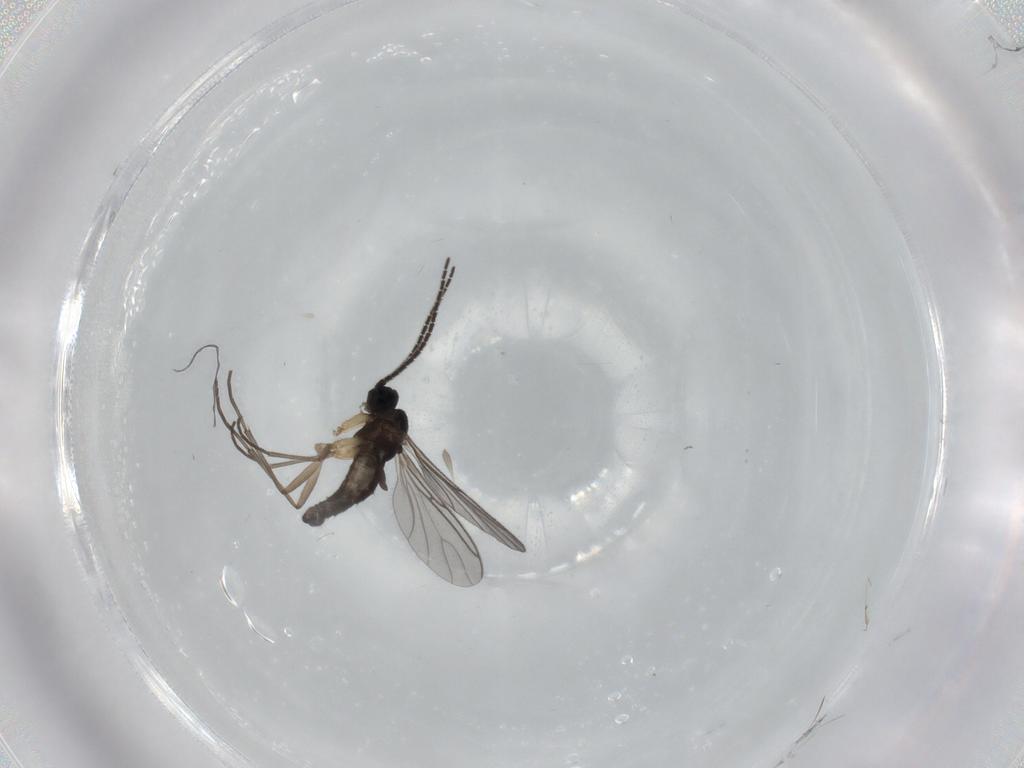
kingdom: Animalia
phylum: Arthropoda
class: Insecta
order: Diptera
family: Sciaridae
